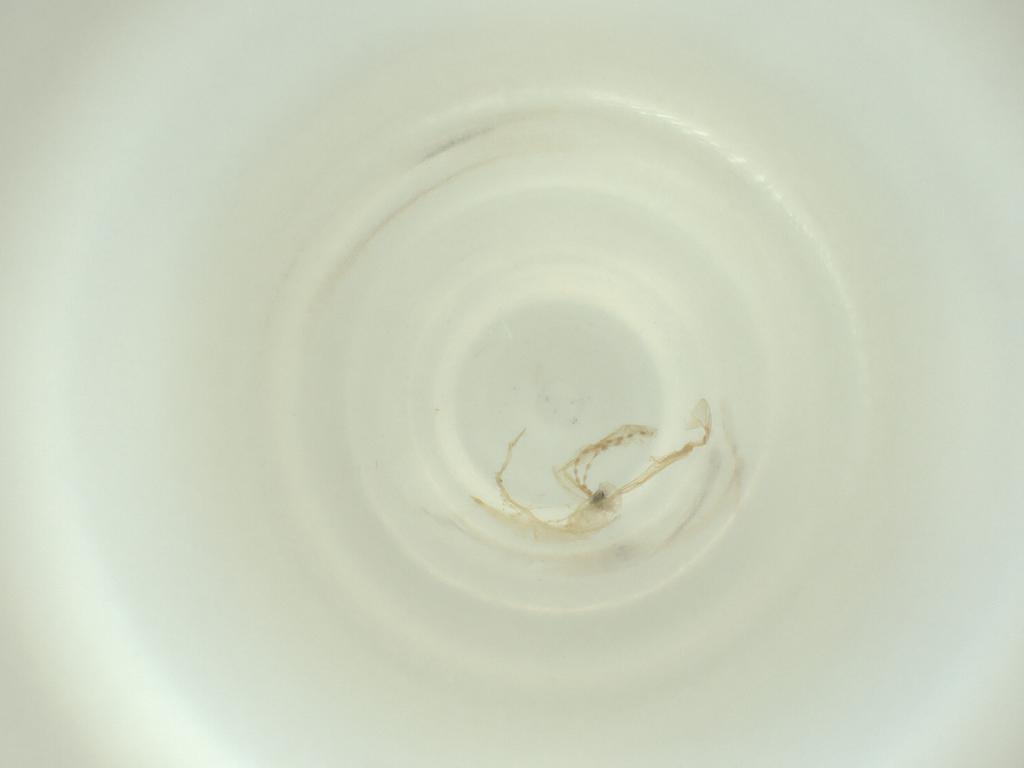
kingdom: Animalia
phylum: Arthropoda
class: Insecta
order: Diptera
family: Cecidomyiidae
